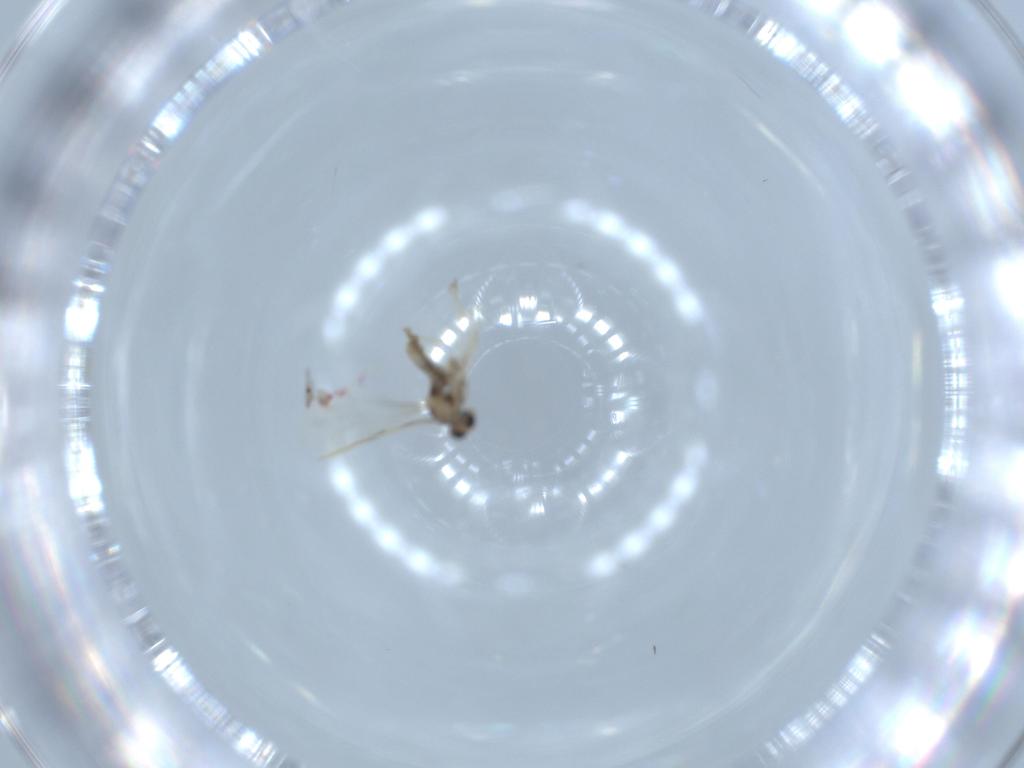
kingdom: Animalia
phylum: Arthropoda
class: Insecta
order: Diptera
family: Cecidomyiidae
